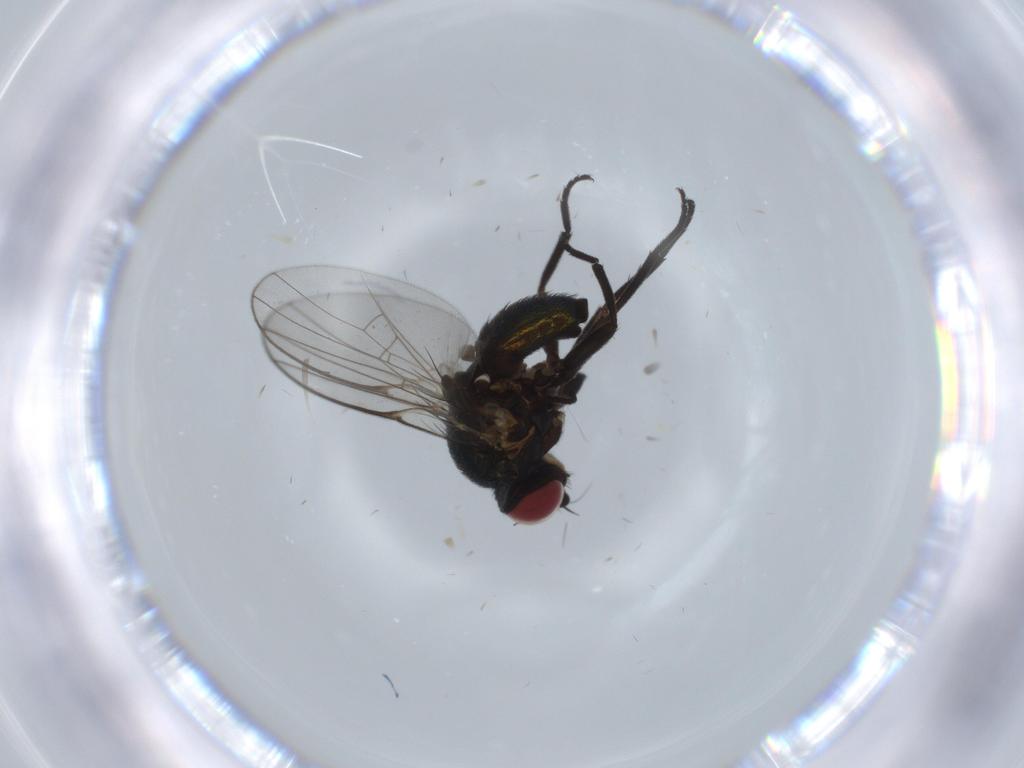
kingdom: Animalia
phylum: Arthropoda
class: Insecta
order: Diptera
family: Agromyzidae
